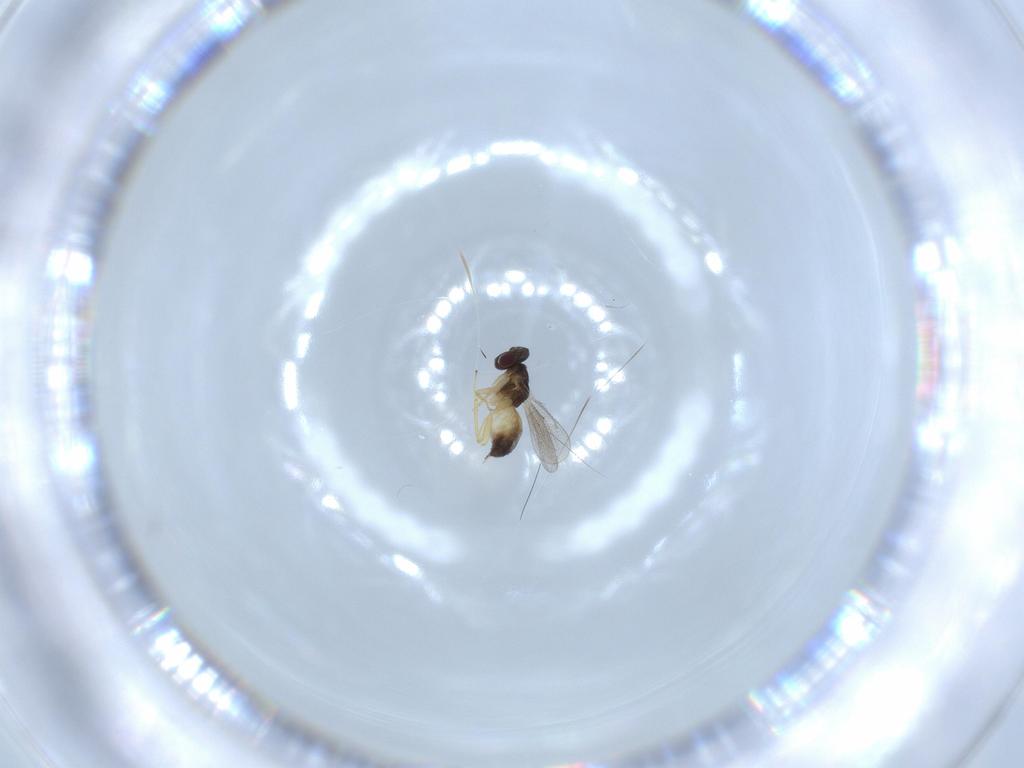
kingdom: Animalia
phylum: Arthropoda
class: Insecta
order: Hymenoptera
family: Eulophidae
